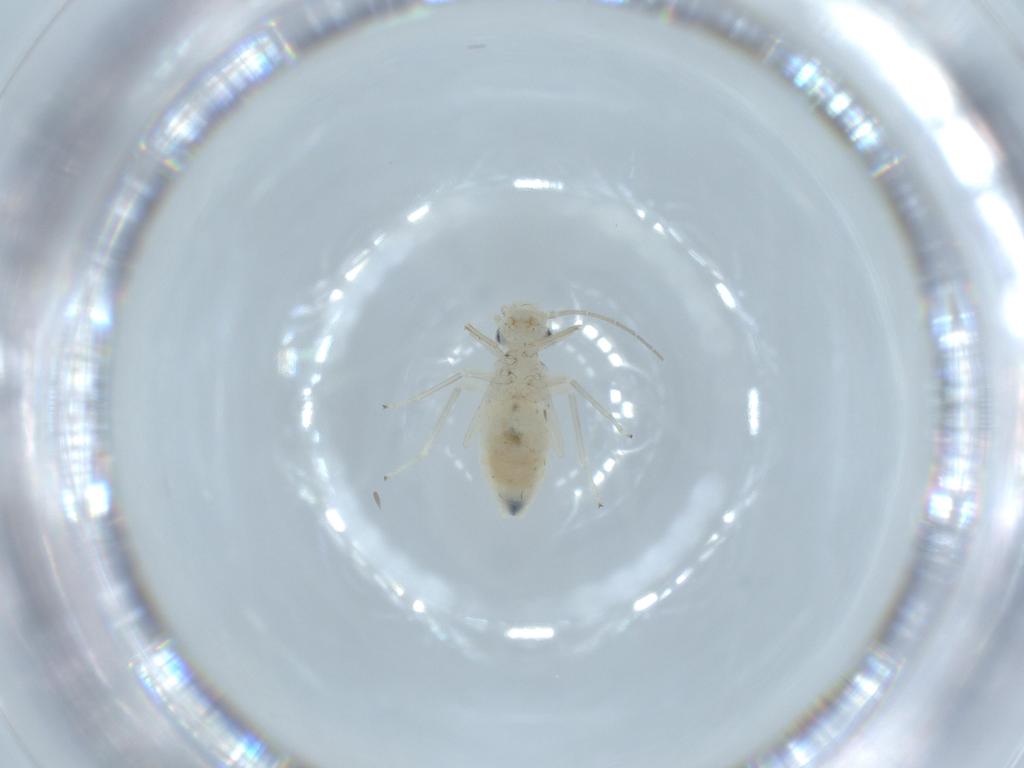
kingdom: Animalia
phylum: Arthropoda
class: Insecta
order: Psocodea
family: Caeciliusidae
